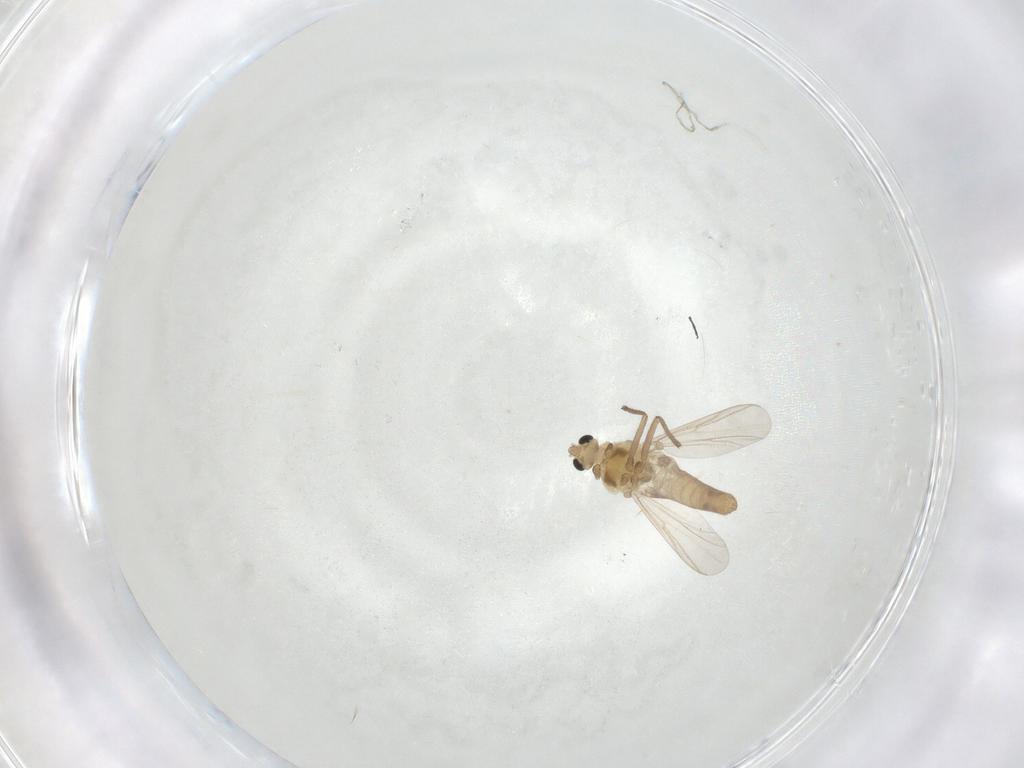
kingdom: Animalia
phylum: Arthropoda
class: Insecta
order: Diptera
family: Chironomidae
